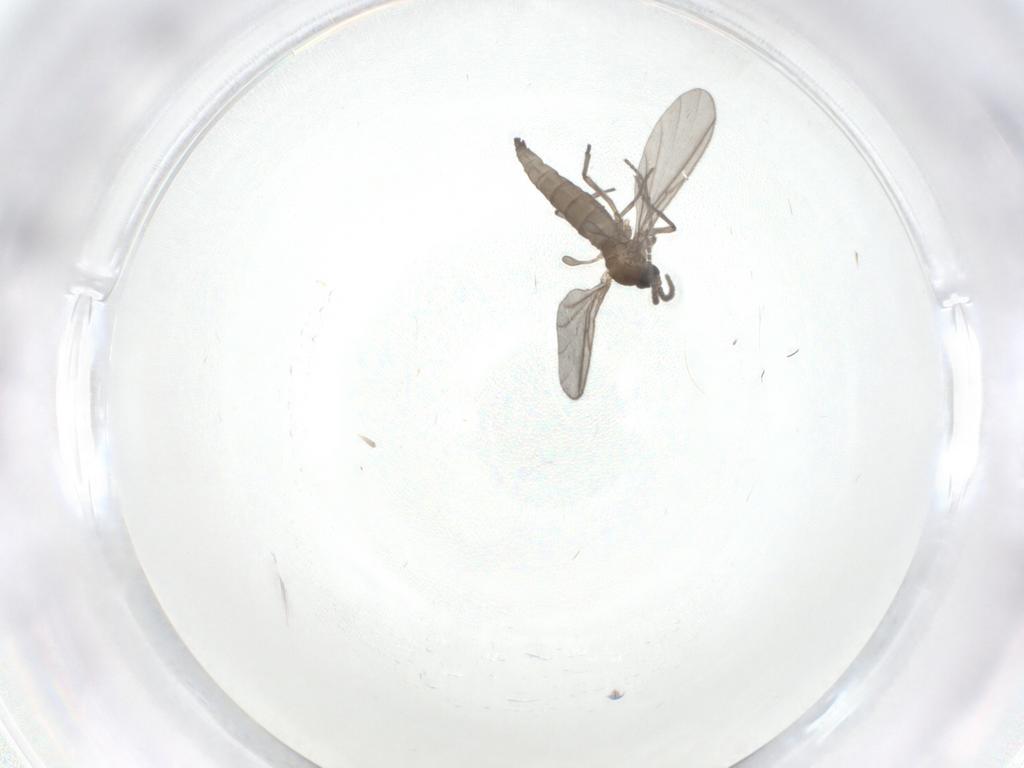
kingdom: Animalia
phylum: Arthropoda
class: Insecta
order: Diptera
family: Sciaridae
